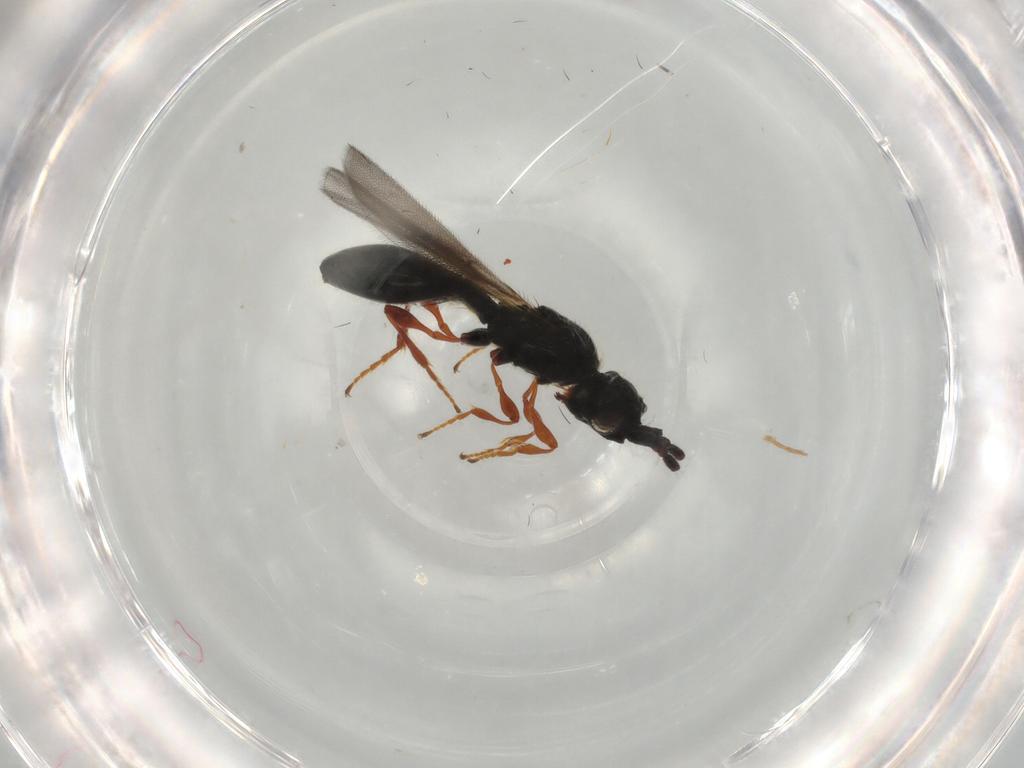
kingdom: Animalia
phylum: Arthropoda
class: Insecta
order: Hymenoptera
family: Diapriidae
